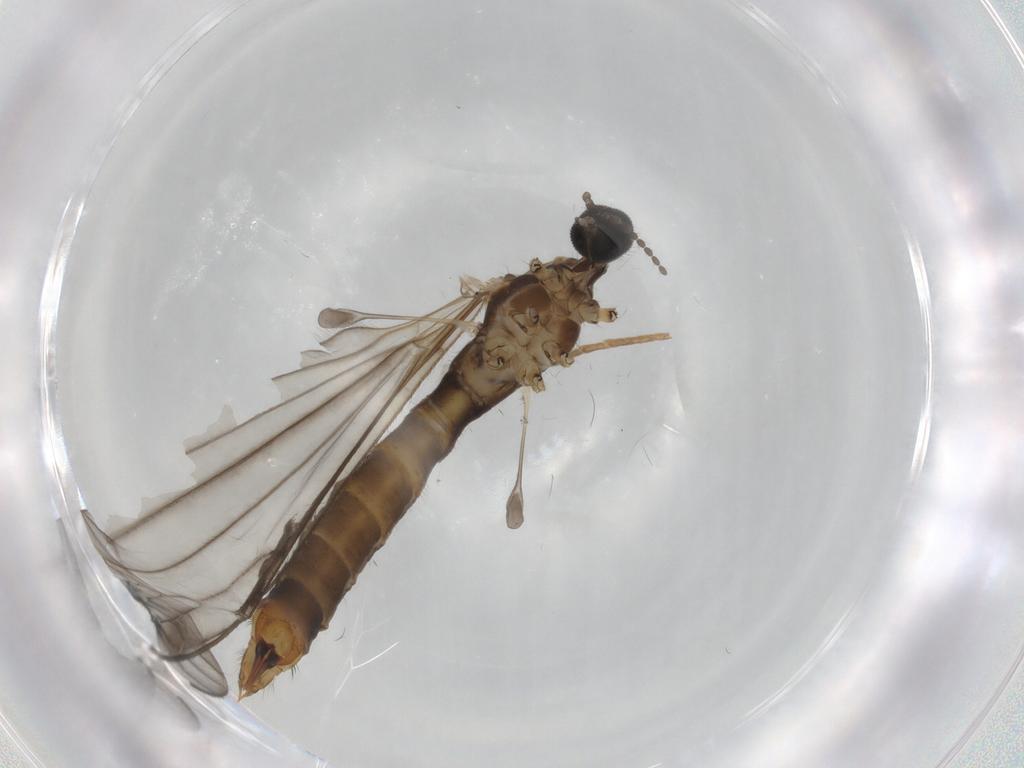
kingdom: Animalia
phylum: Arthropoda
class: Insecta
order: Diptera
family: Chironomidae
